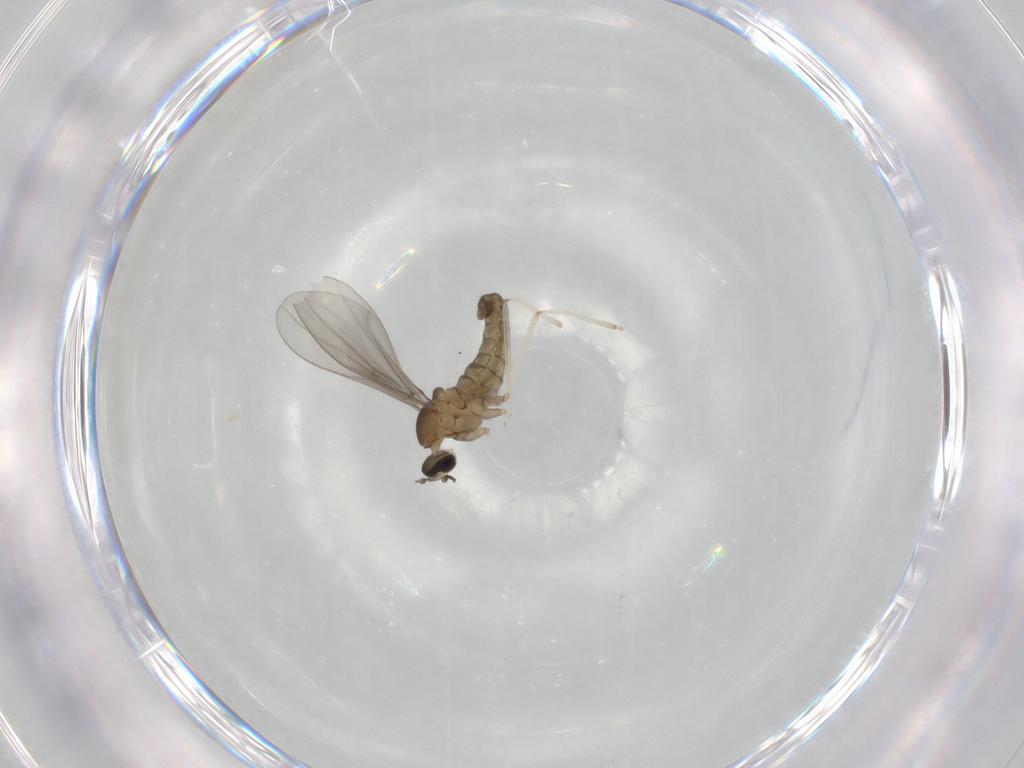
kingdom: Animalia
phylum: Arthropoda
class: Insecta
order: Diptera
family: Cecidomyiidae
